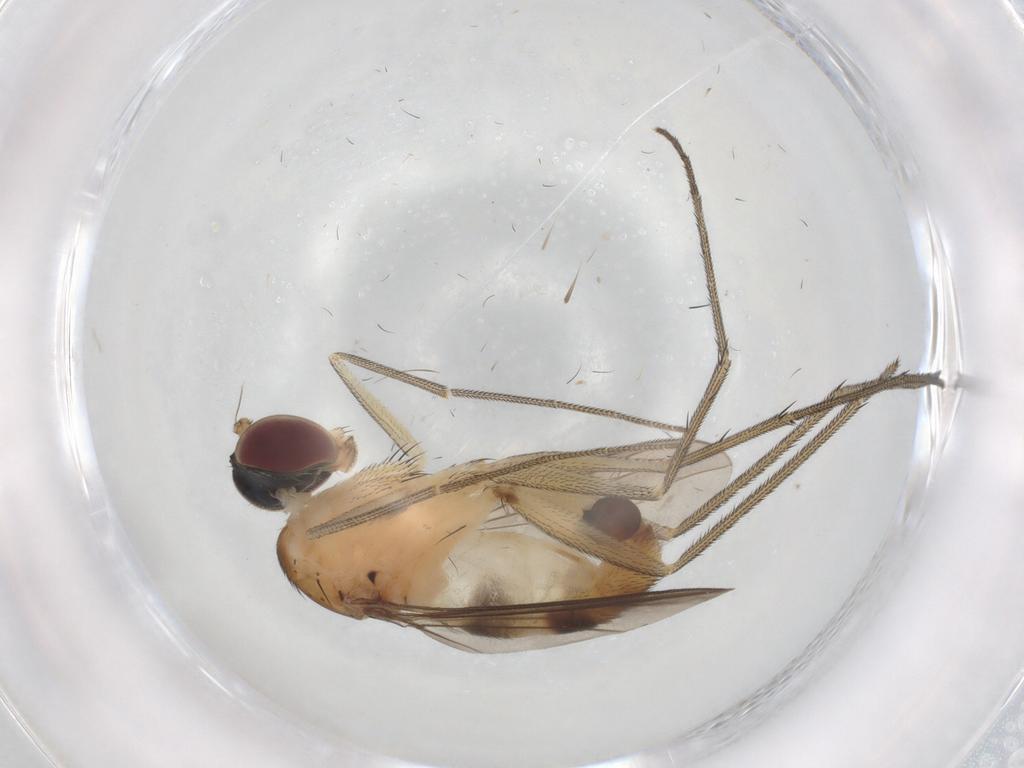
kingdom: Animalia
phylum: Arthropoda
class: Insecta
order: Diptera
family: Dolichopodidae
